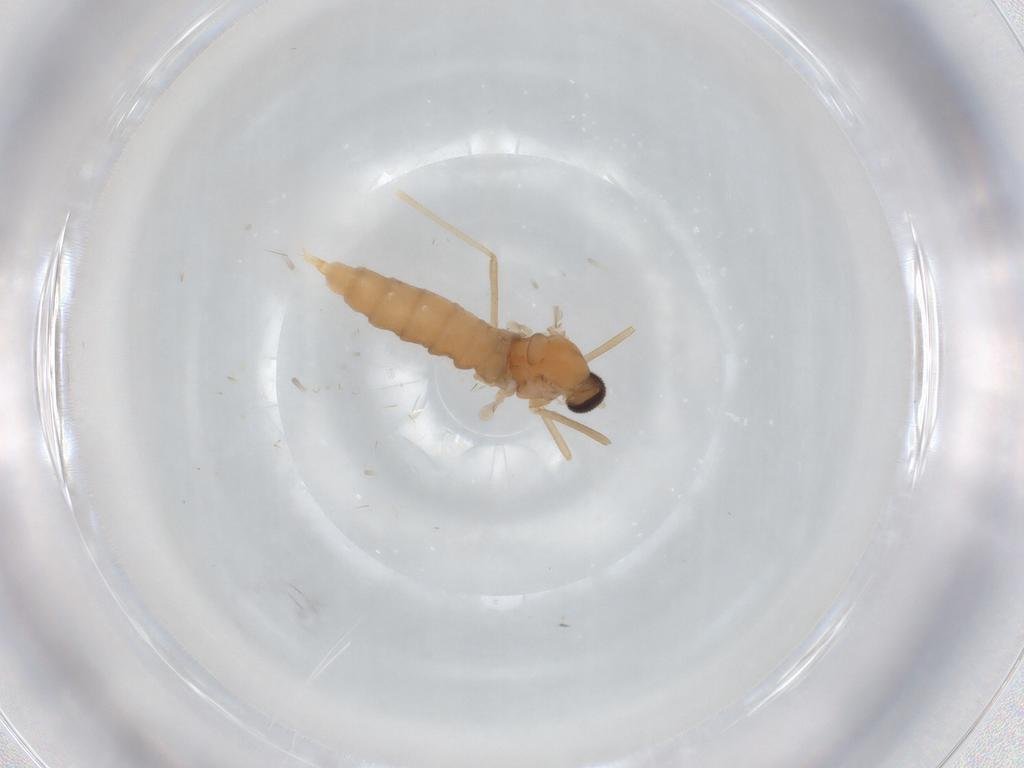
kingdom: Animalia
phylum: Arthropoda
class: Insecta
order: Diptera
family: Cecidomyiidae
